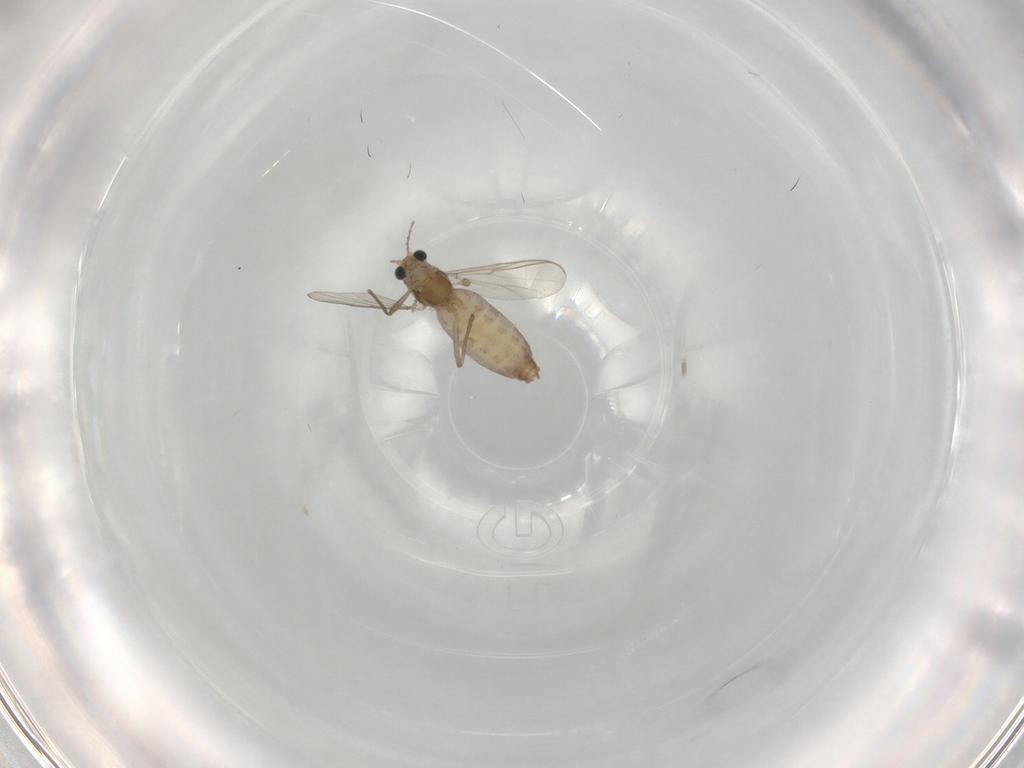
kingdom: Animalia
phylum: Arthropoda
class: Insecta
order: Diptera
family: Chironomidae
